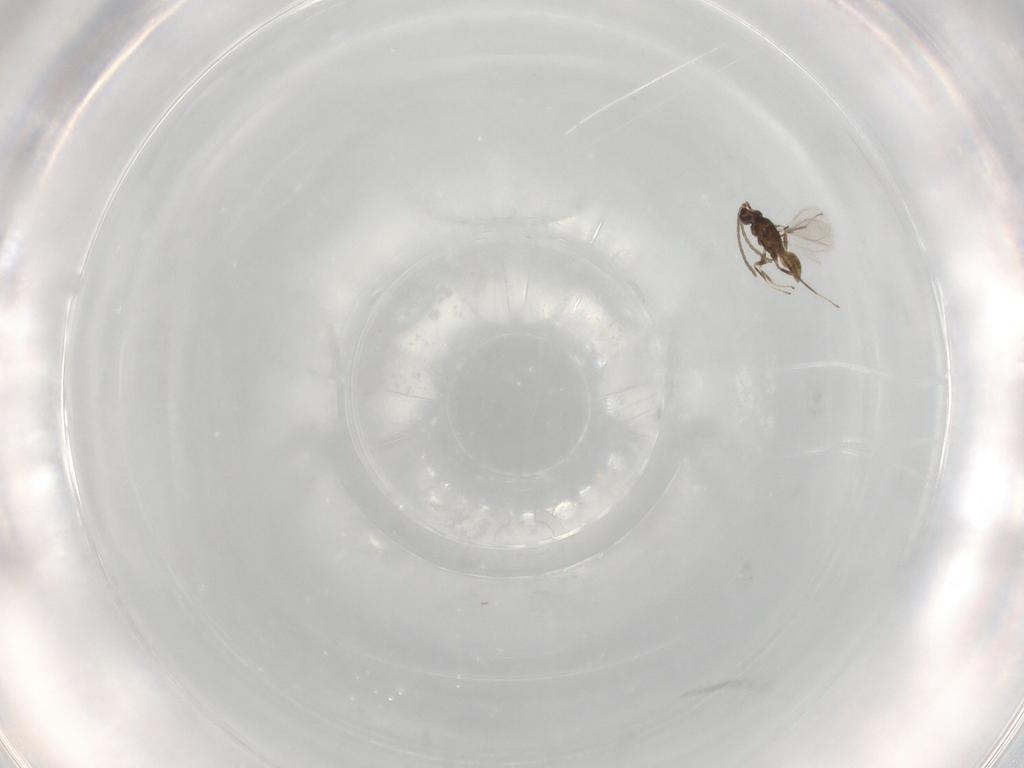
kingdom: Animalia
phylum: Arthropoda
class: Insecta
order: Hymenoptera
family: Mymaridae
